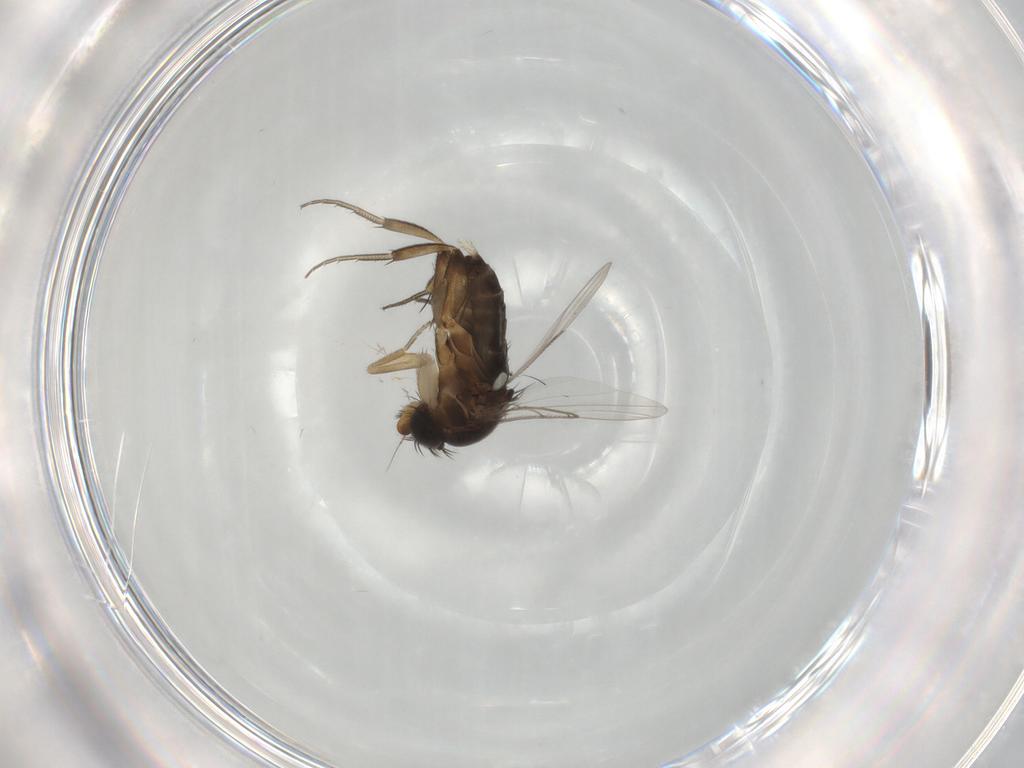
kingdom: Animalia
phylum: Arthropoda
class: Insecta
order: Diptera
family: Phoridae
